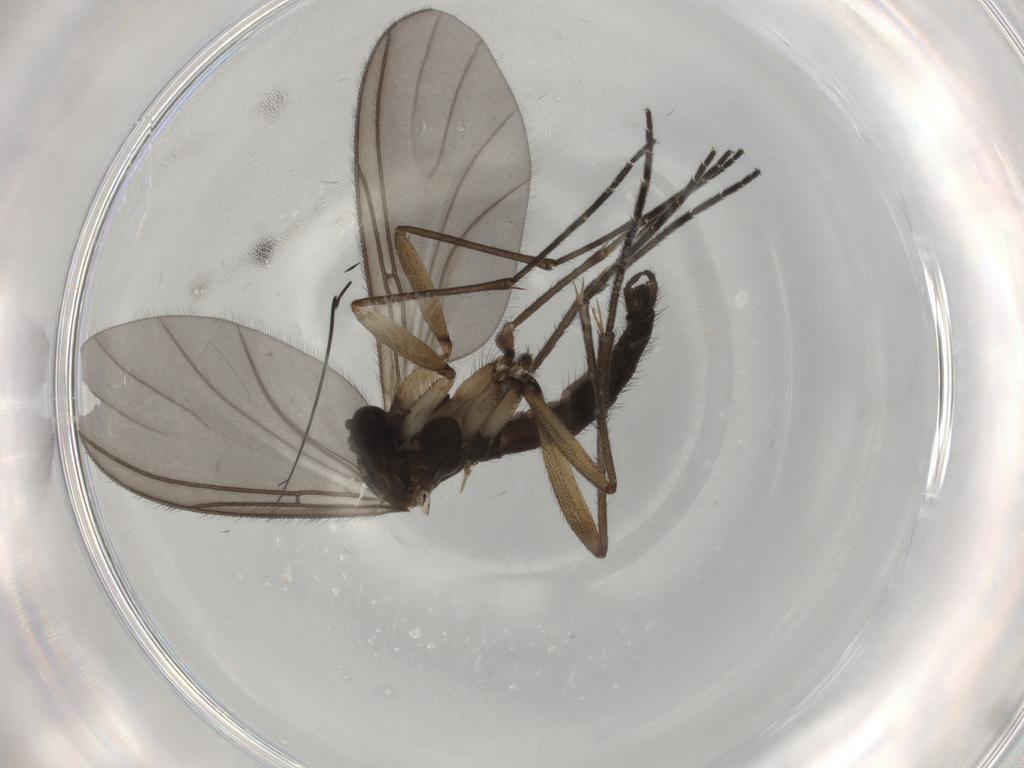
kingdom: Animalia
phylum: Arthropoda
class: Insecta
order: Diptera
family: Sciaridae
